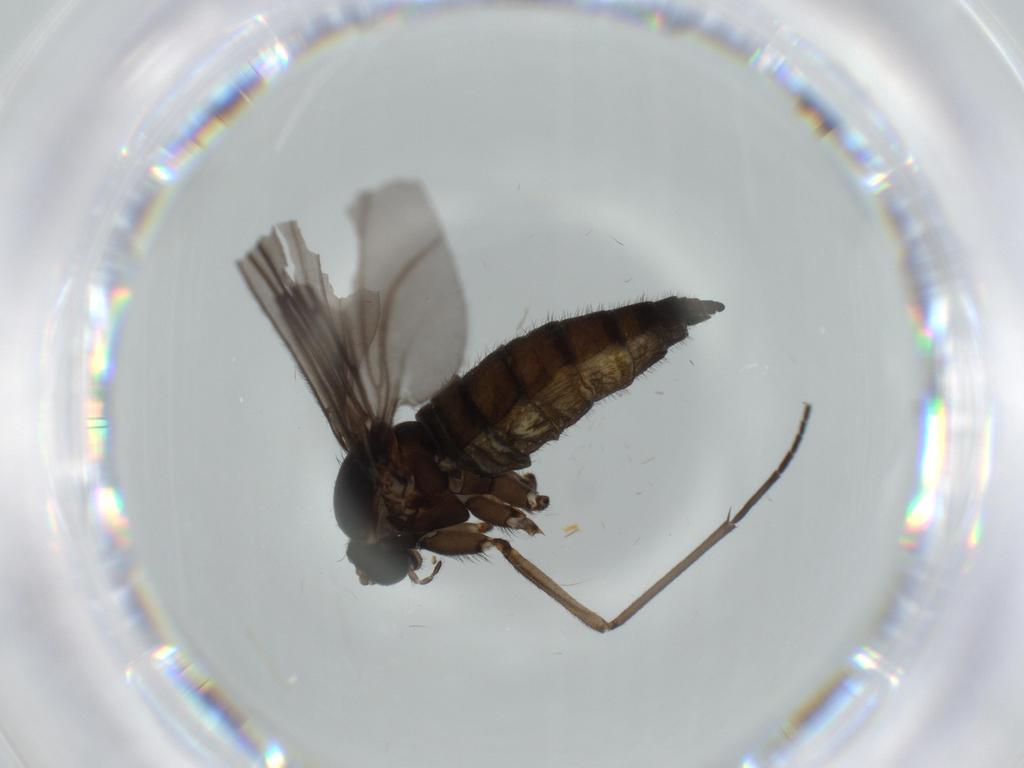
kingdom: Animalia
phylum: Arthropoda
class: Insecta
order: Diptera
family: Sciaridae
